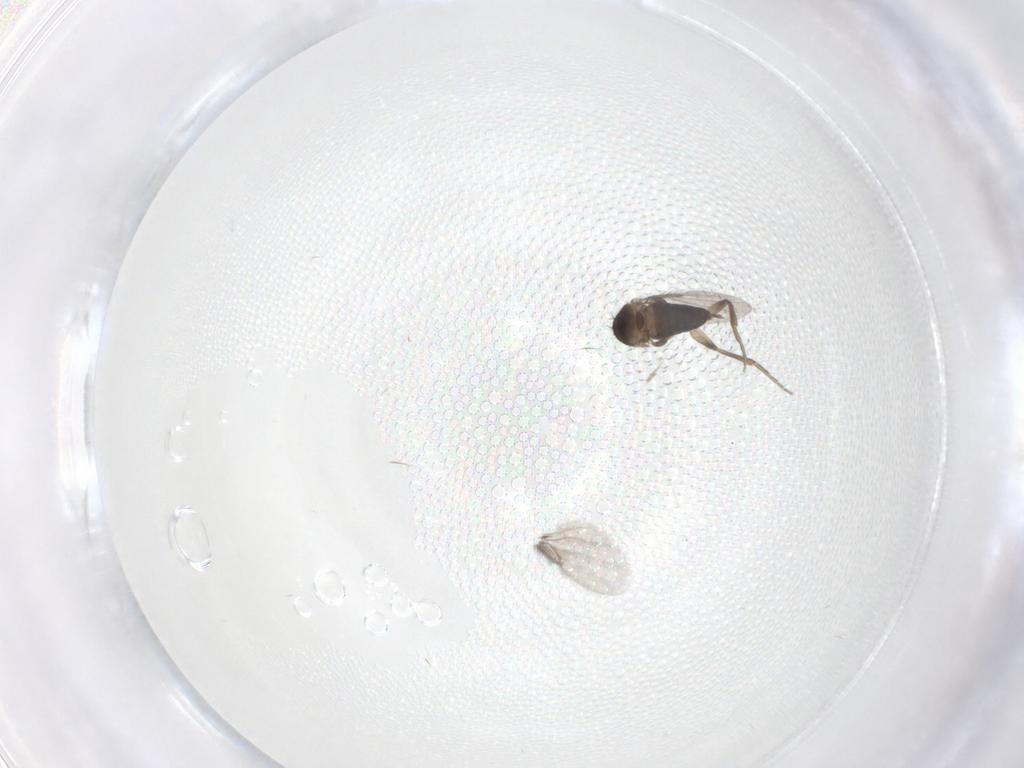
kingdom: Animalia
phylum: Arthropoda
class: Insecta
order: Diptera
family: Phoridae
